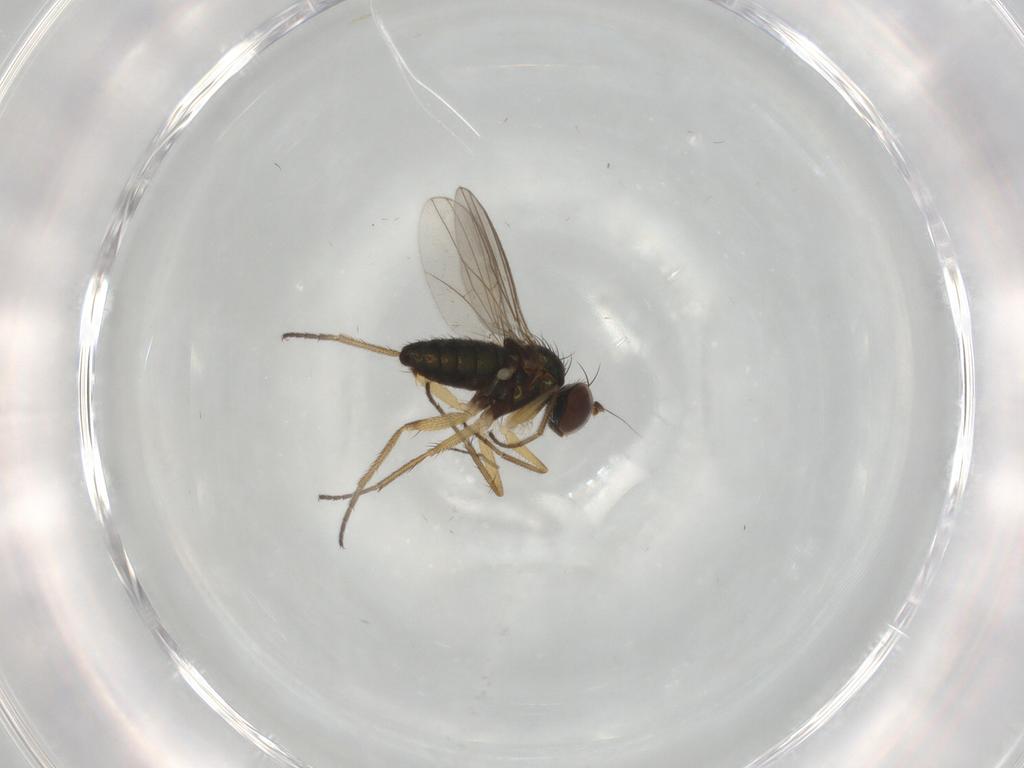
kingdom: Animalia
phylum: Arthropoda
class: Insecta
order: Diptera
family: Sciaridae
